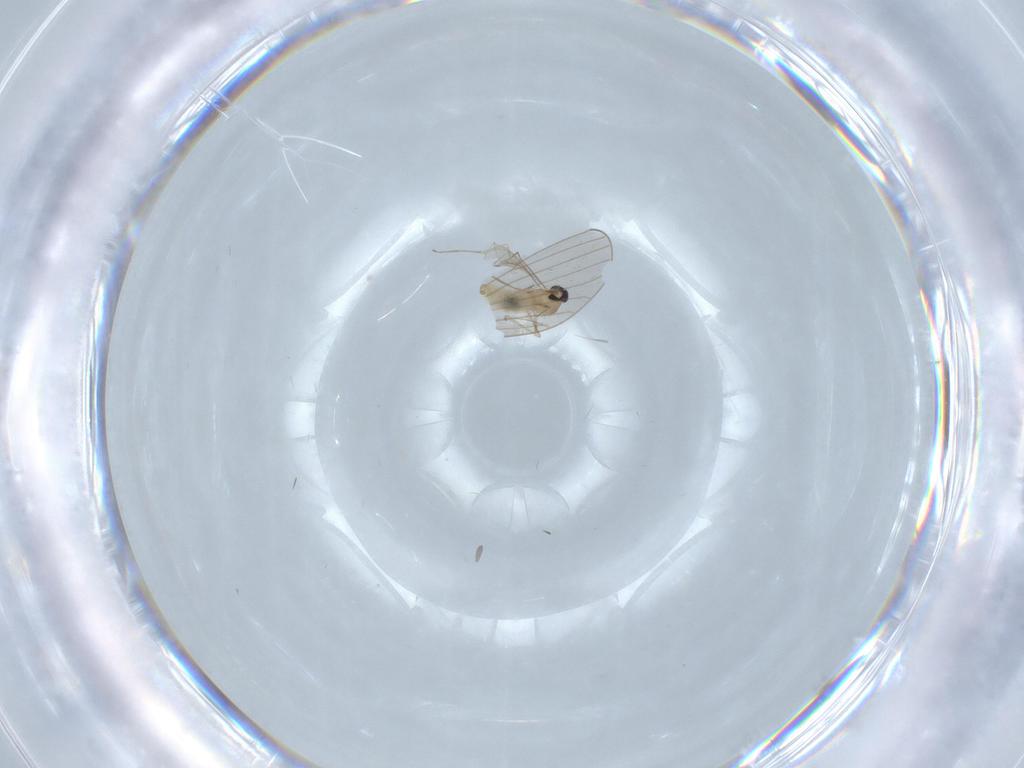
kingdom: Animalia
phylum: Arthropoda
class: Insecta
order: Diptera
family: Cecidomyiidae
